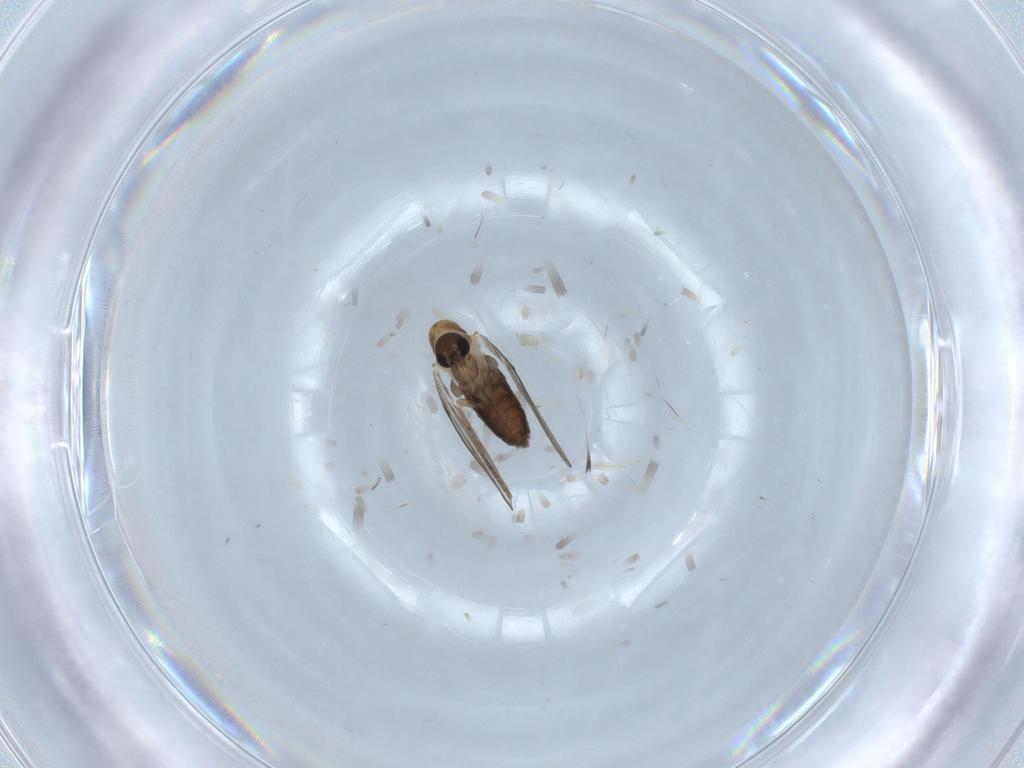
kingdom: Animalia
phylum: Arthropoda
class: Insecta
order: Diptera
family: Psychodidae
